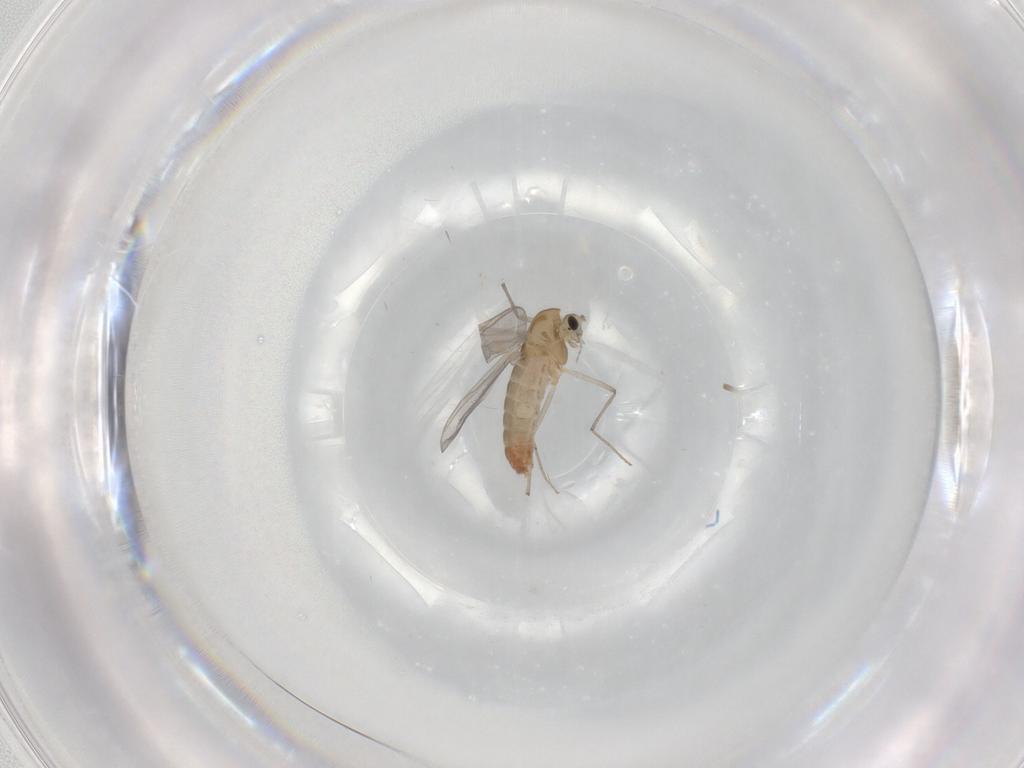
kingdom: Animalia
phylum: Arthropoda
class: Insecta
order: Diptera
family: Chironomidae
